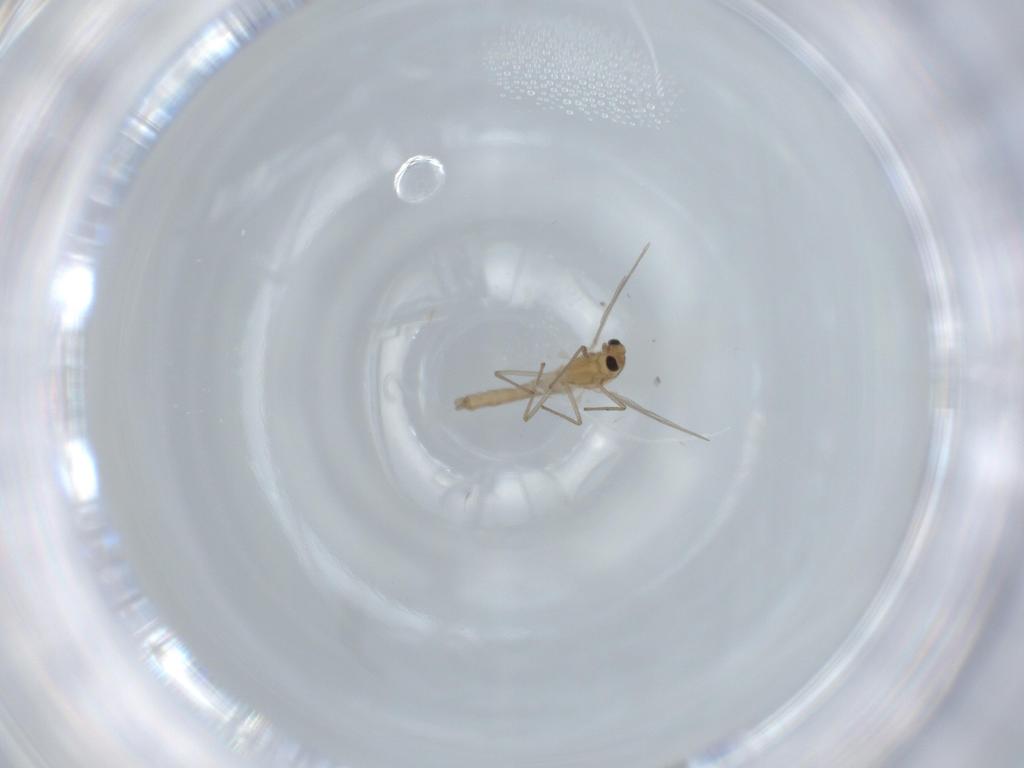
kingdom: Animalia
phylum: Arthropoda
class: Insecta
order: Diptera
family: Chironomidae
